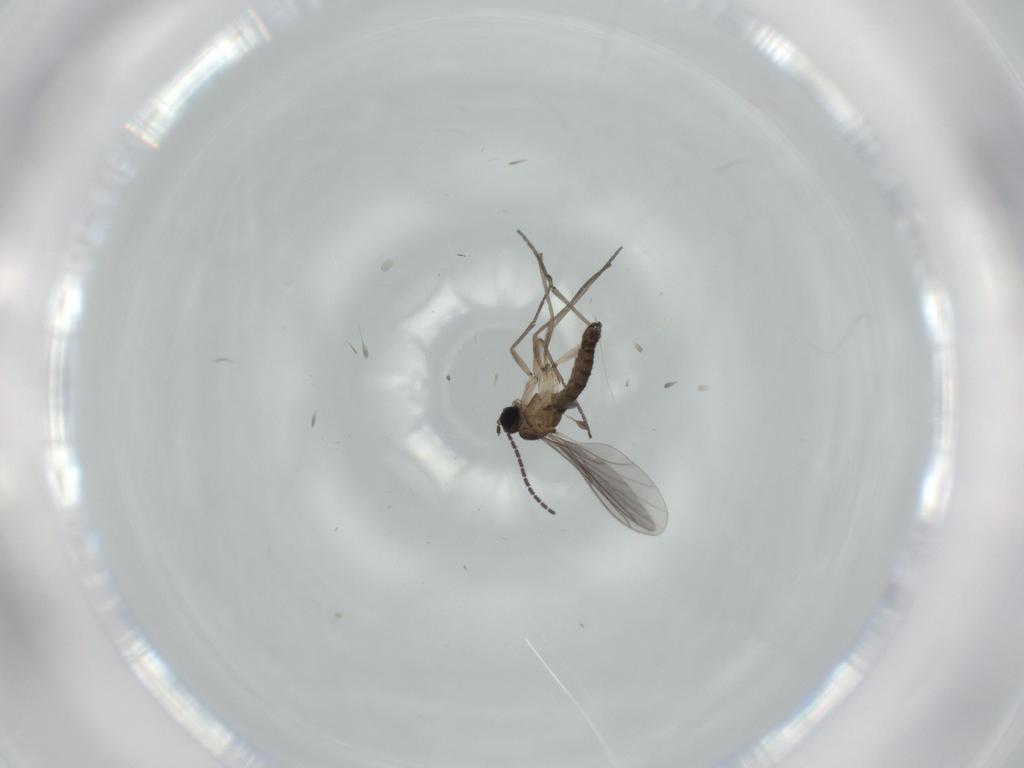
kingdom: Animalia
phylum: Arthropoda
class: Insecta
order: Diptera
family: Sciaridae
